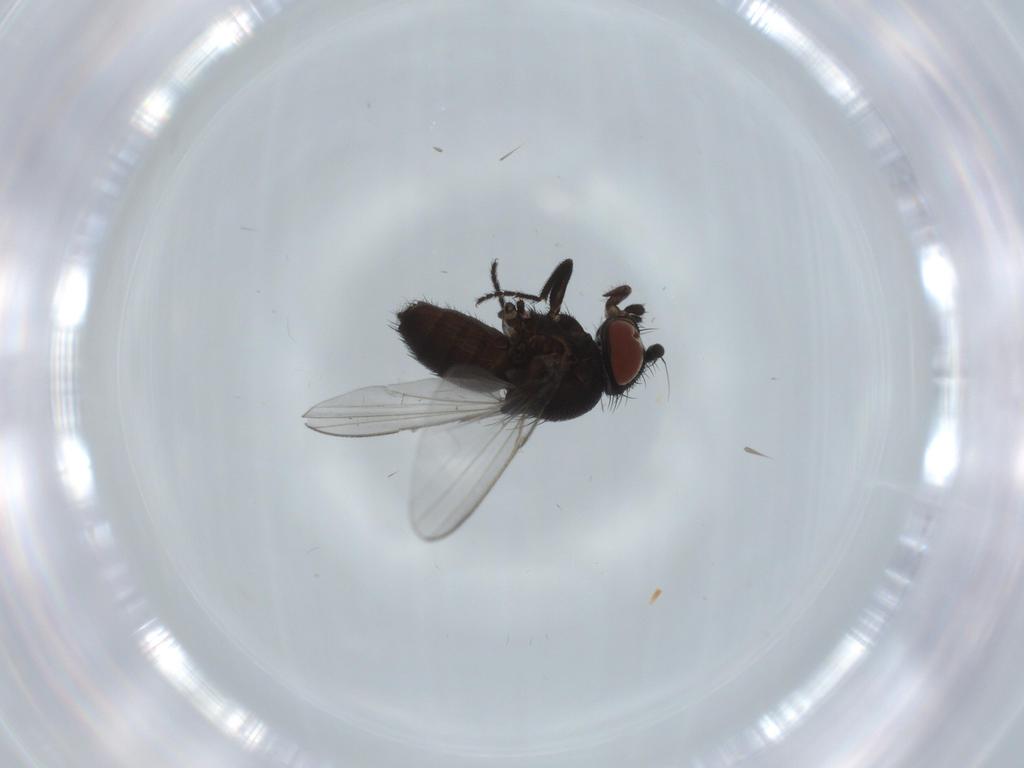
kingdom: Animalia
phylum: Arthropoda
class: Insecta
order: Diptera
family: Milichiidae
